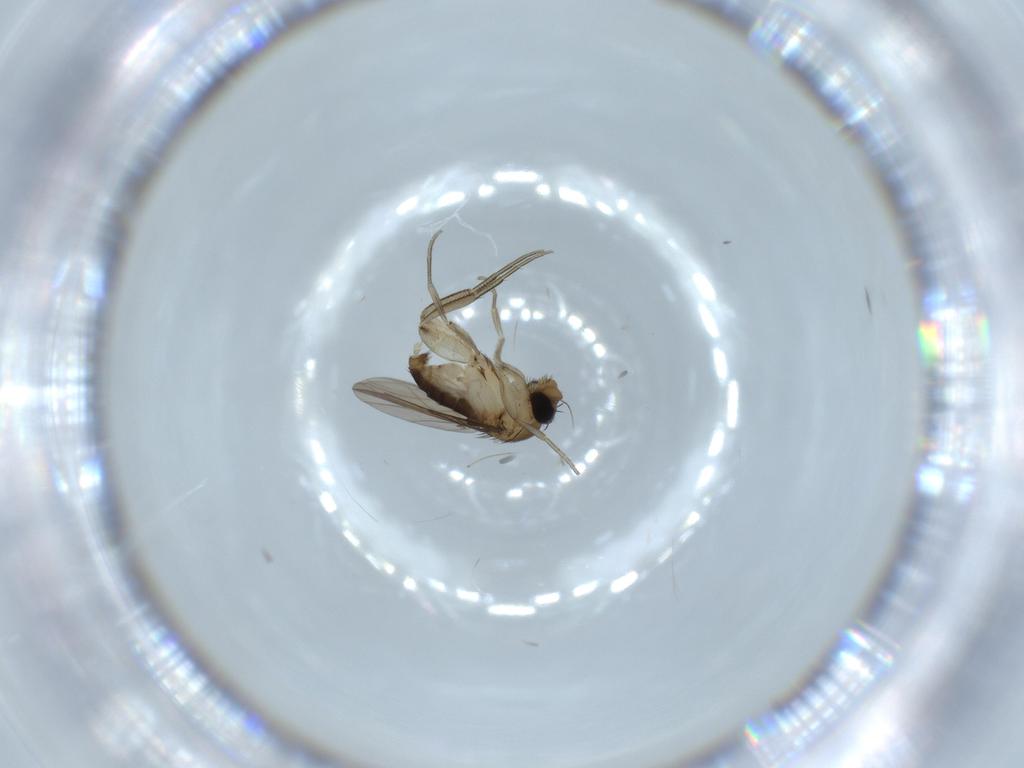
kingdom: Animalia
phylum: Arthropoda
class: Insecta
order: Diptera
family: Phoridae
